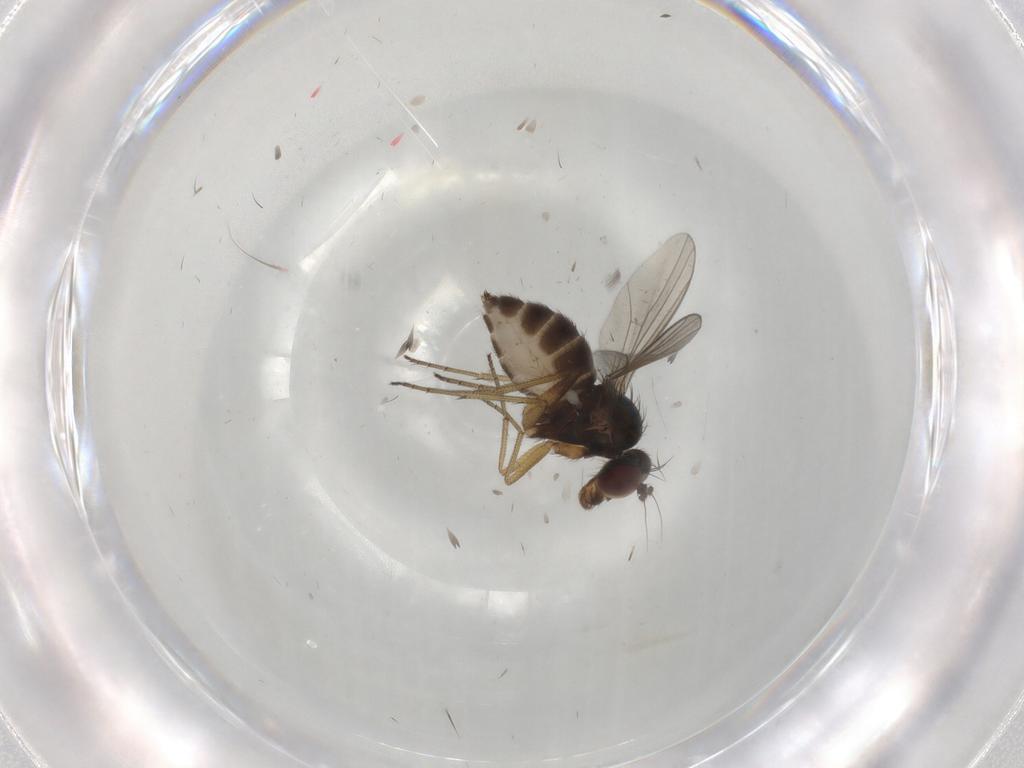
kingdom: Animalia
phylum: Arthropoda
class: Insecta
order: Diptera
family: Dolichopodidae
